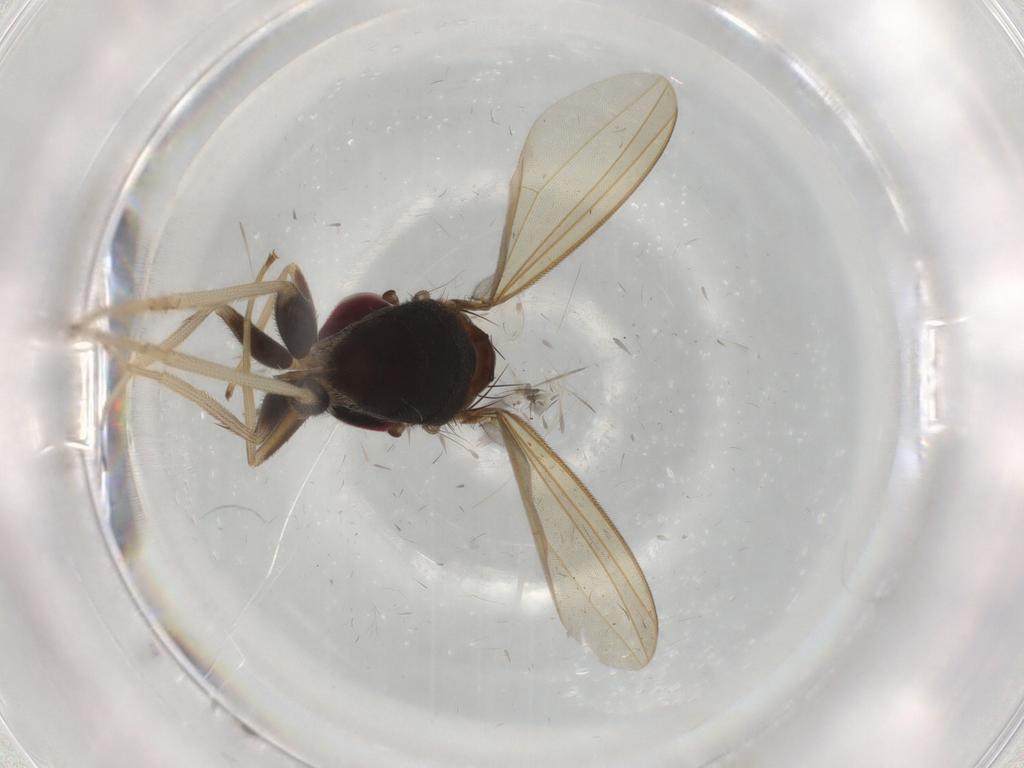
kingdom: Animalia
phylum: Arthropoda
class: Insecta
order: Diptera
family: Dolichopodidae
